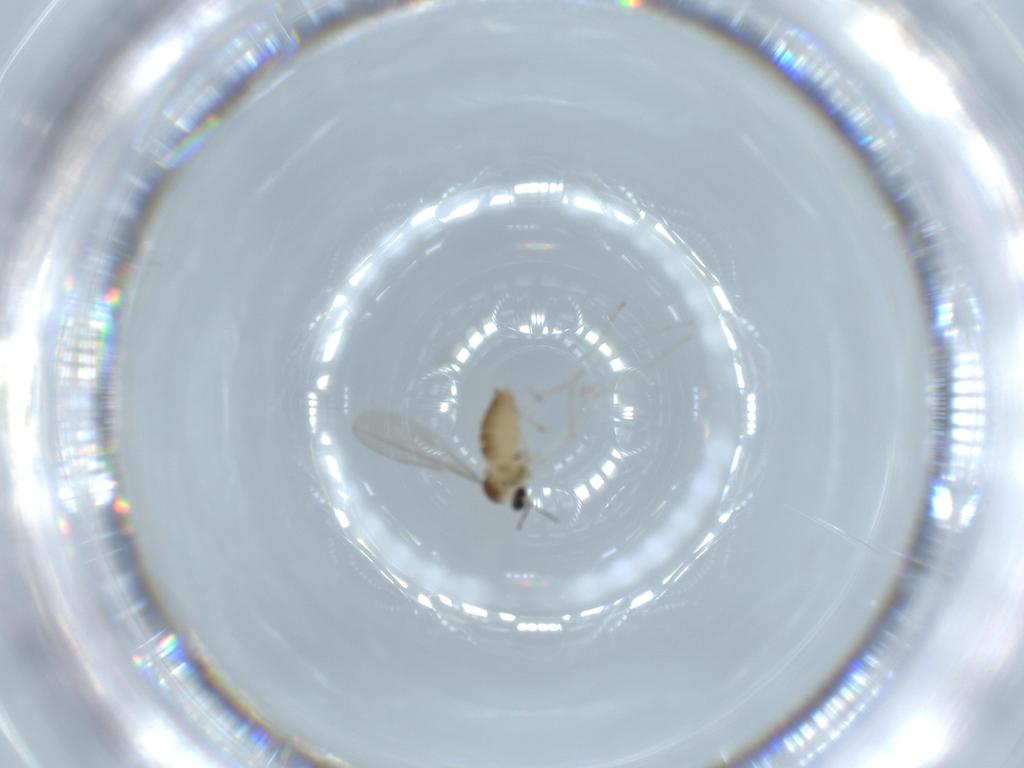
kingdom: Animalia
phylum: Arthropoda
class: Insecta
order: Diptera
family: Cecidomyiidae
